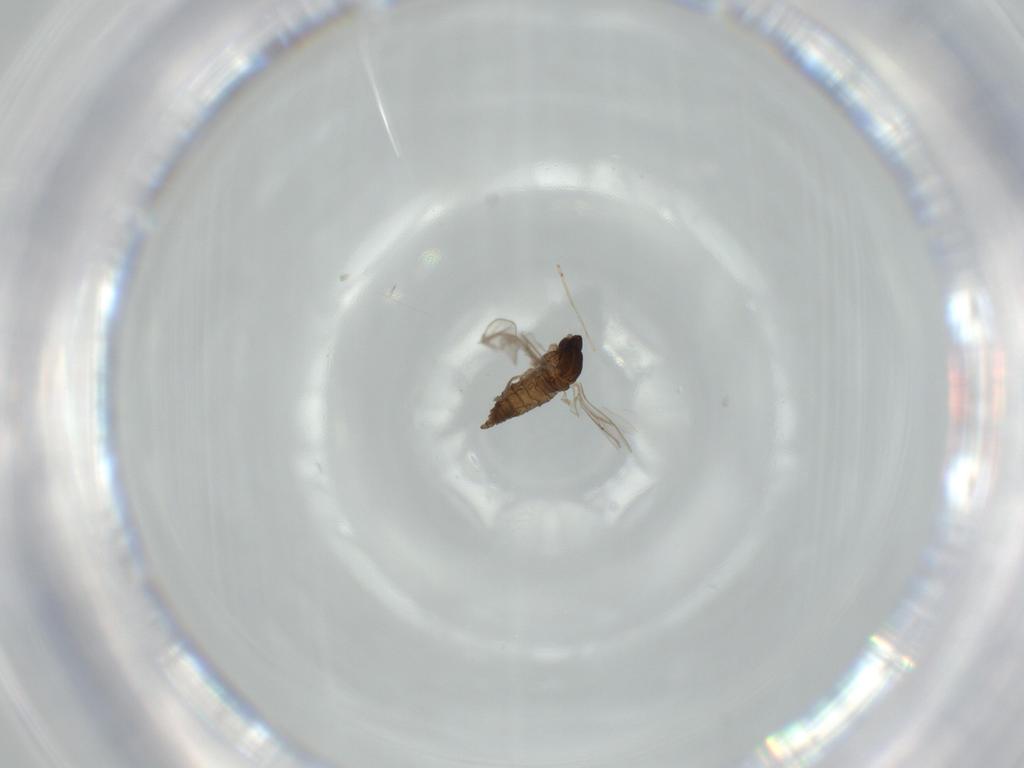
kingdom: Animalia
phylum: Arthropoda
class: Insecta
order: Diptera
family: Cecidomyiidae
